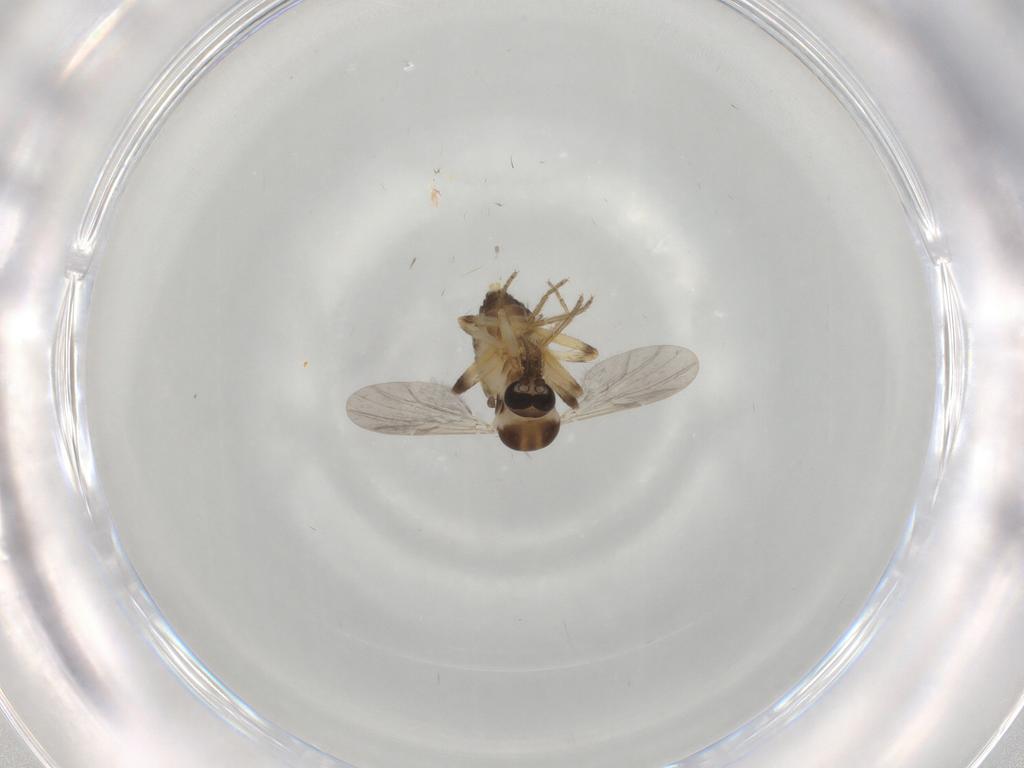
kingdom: Animalia
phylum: Arthropoda
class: Insecta
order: Diptera
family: Ceratopogonidae
